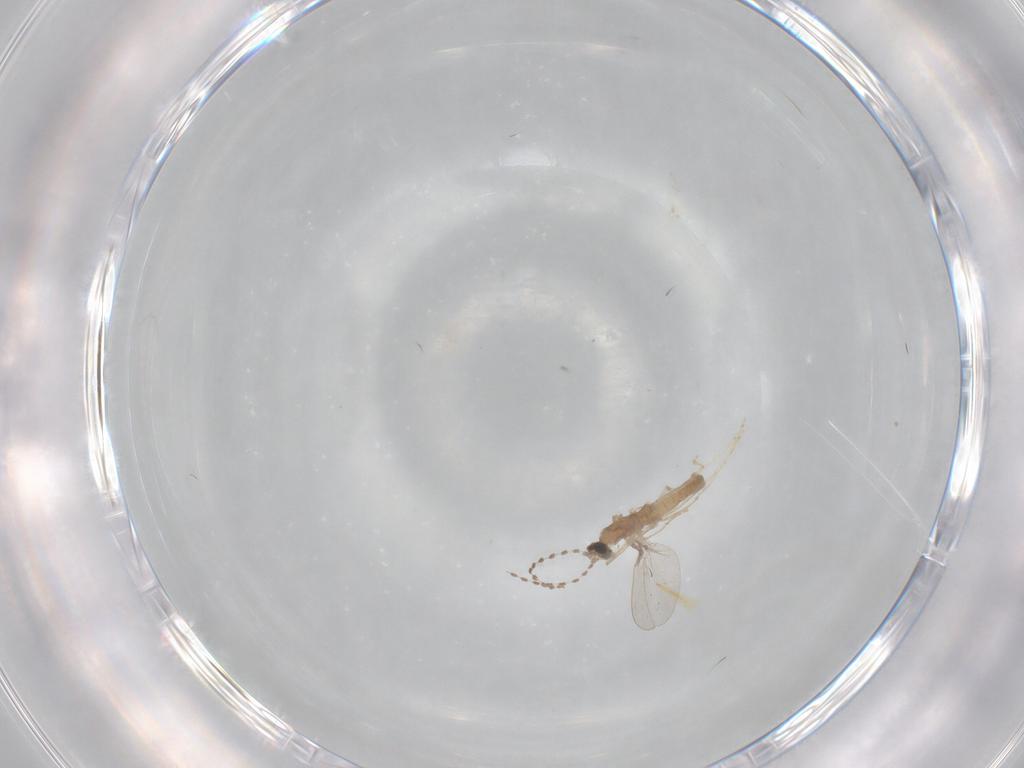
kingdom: Animalia
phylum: Arthropoda
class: Insecta
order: Diptera
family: Cecidomyiidae
